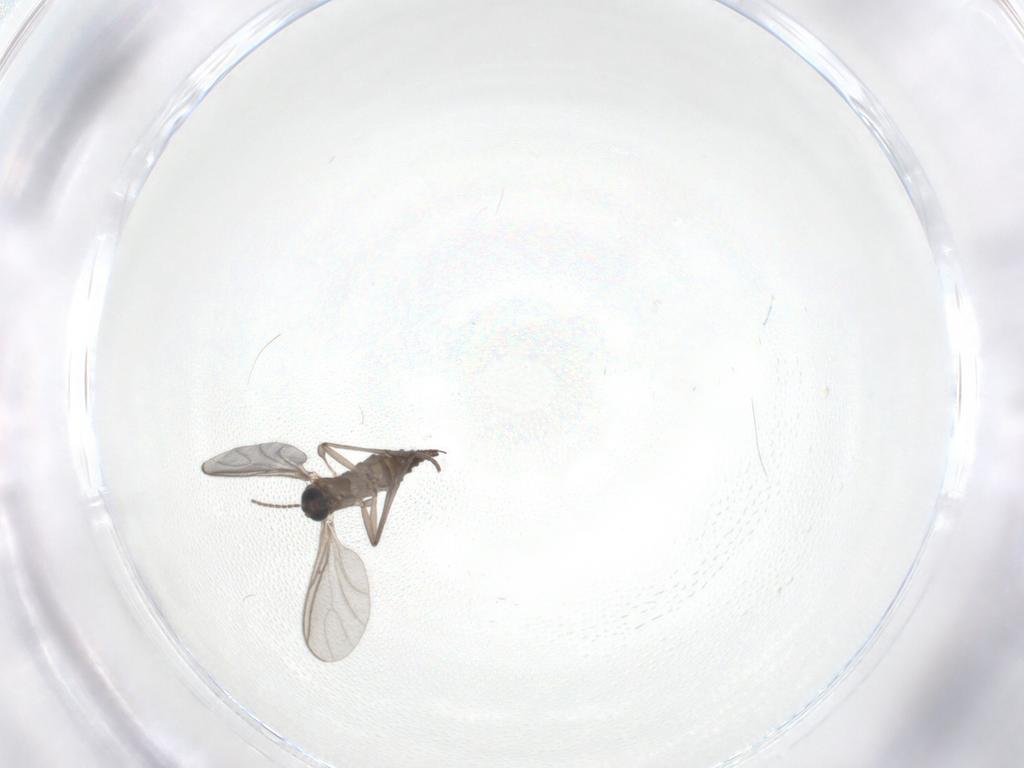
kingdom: Animalia
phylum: Arthropoda
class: Insecta
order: Diptera
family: Sciaridae
